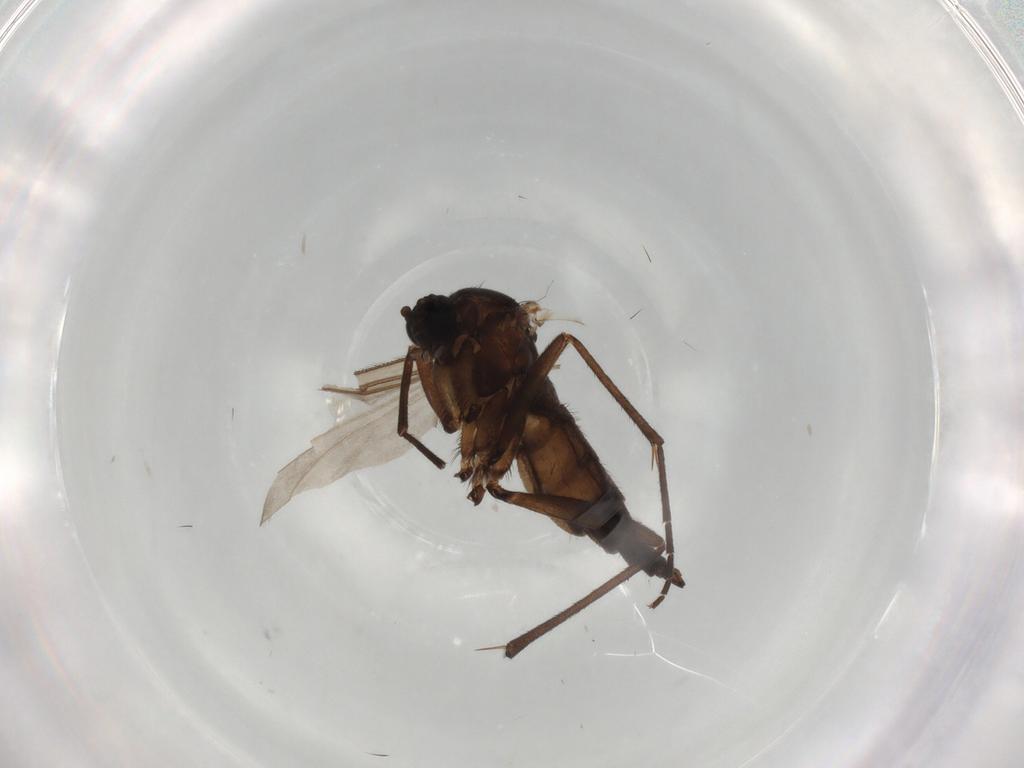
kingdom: Animalia
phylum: Arthropoda
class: Insecta
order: Diptera
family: Sciaridae
